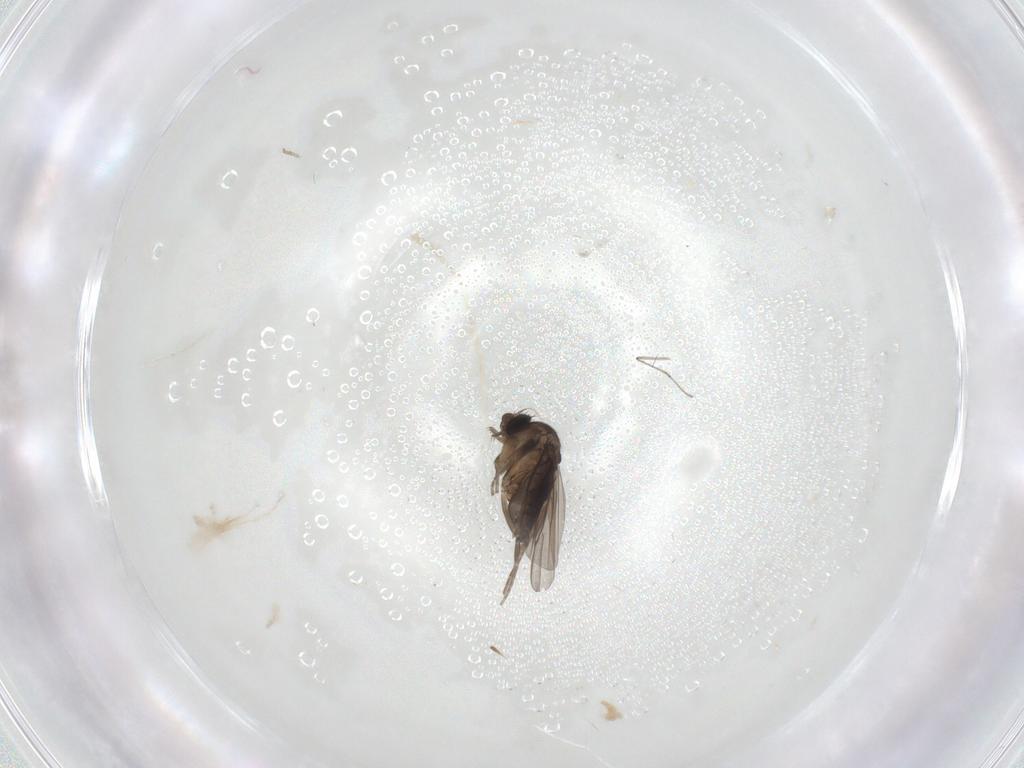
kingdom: Animalia
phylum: Arthropoda
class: Insecta
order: Diptera
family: Phoridae
